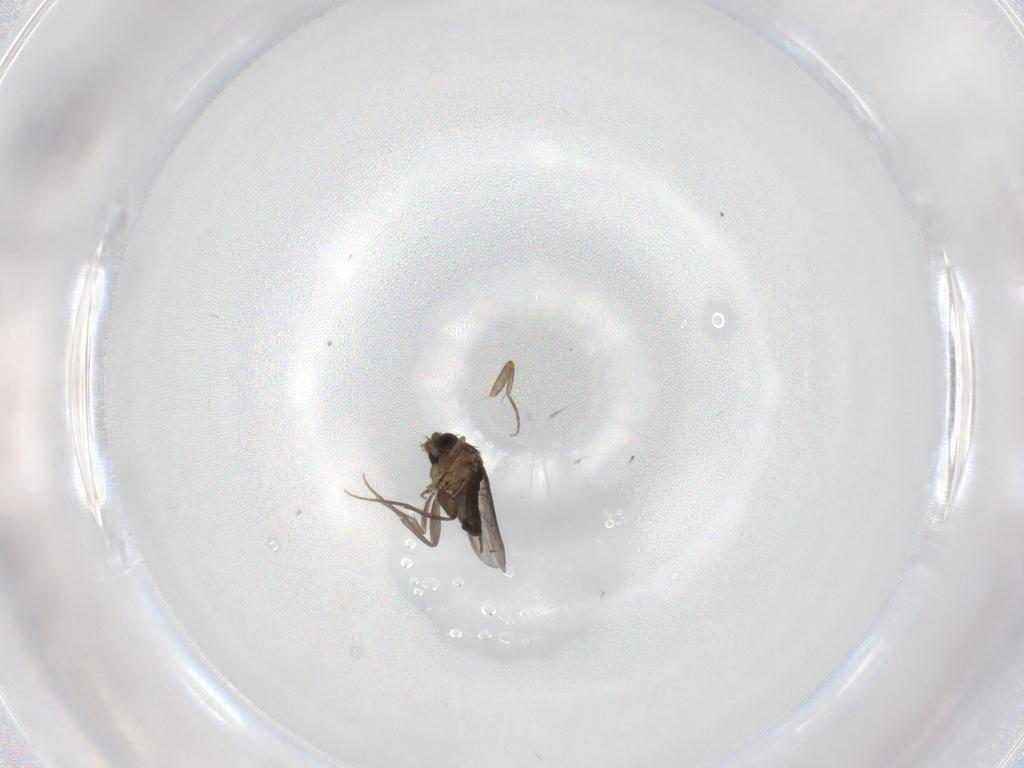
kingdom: Animalia
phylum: Arthropoda
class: Insecta
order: Diptera
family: Phoridae
